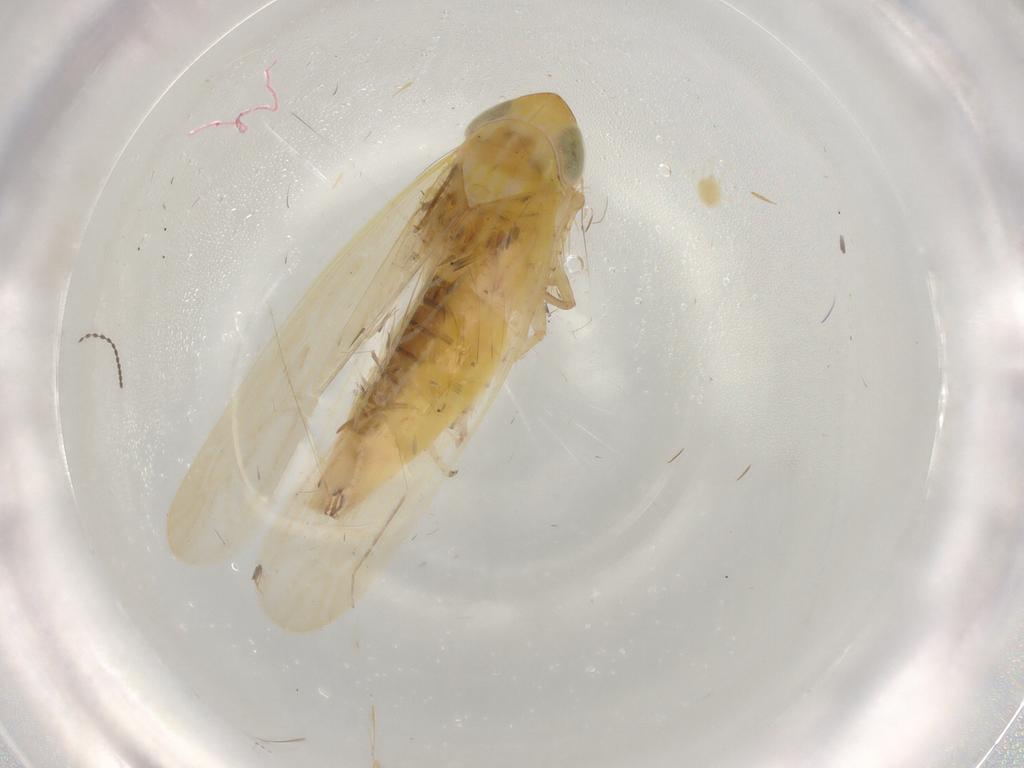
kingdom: Animalia
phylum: Arthropoda
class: Insecta
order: Hemiptera
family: Cicadellidae
